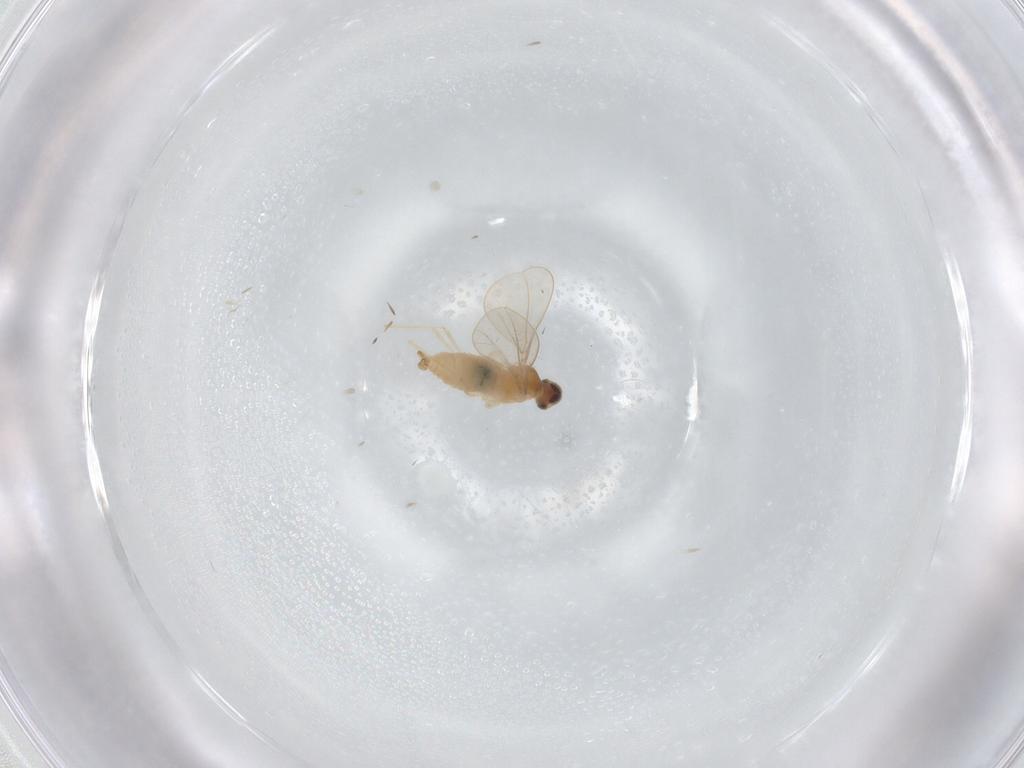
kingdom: Animalia
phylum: Arthropoda
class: Insecta
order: Diptera
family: Cecidomyiidae
